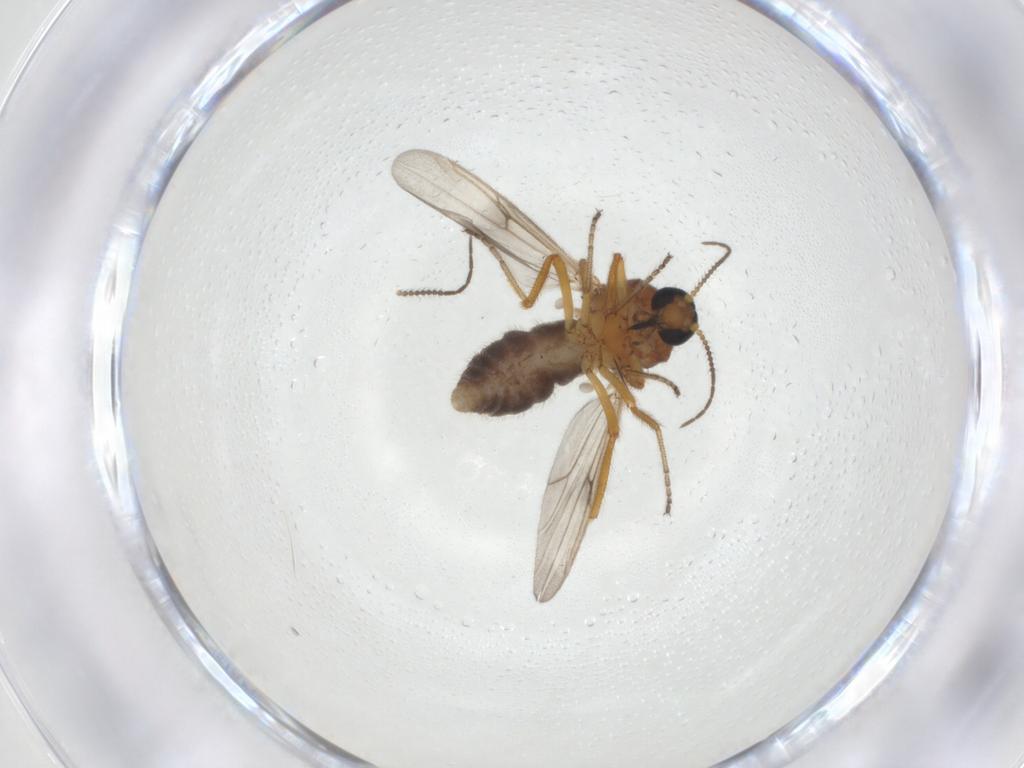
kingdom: Animalia
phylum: Arthropoda
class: Insecta
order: Diptera
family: Ceratopogonidae
